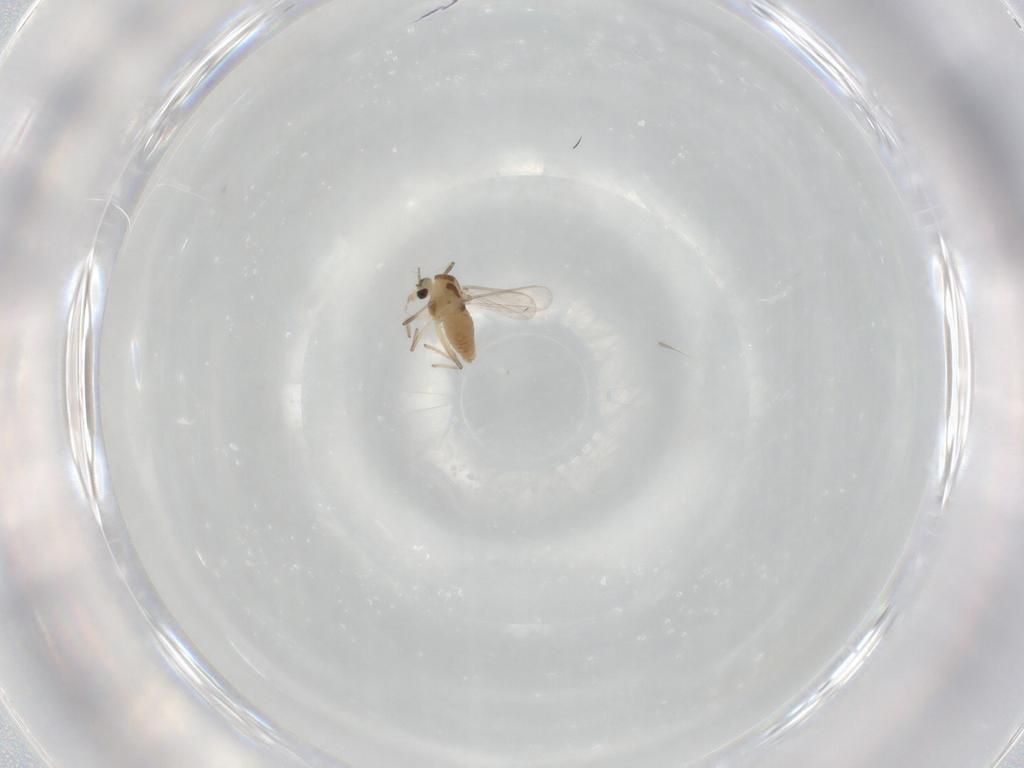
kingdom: Animalia
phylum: Arthropoda
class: Insecta
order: Diptera
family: Chironomidae
